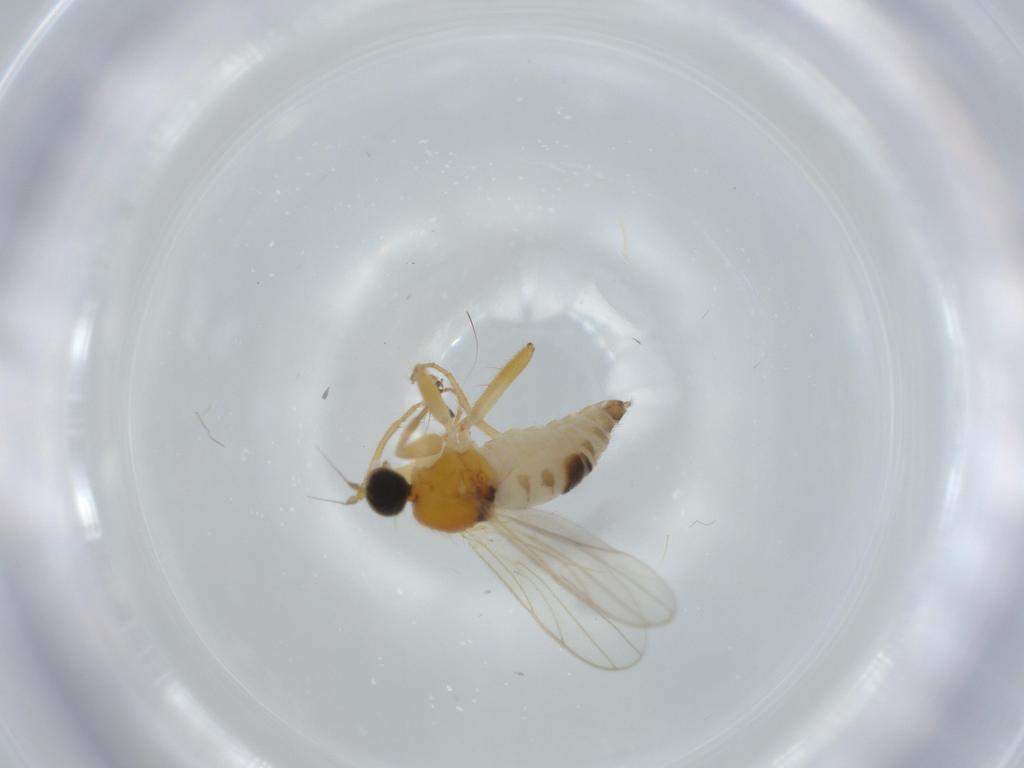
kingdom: Animalia
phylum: Arthropoda
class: Insecta
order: Diptera
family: Hybotidae
